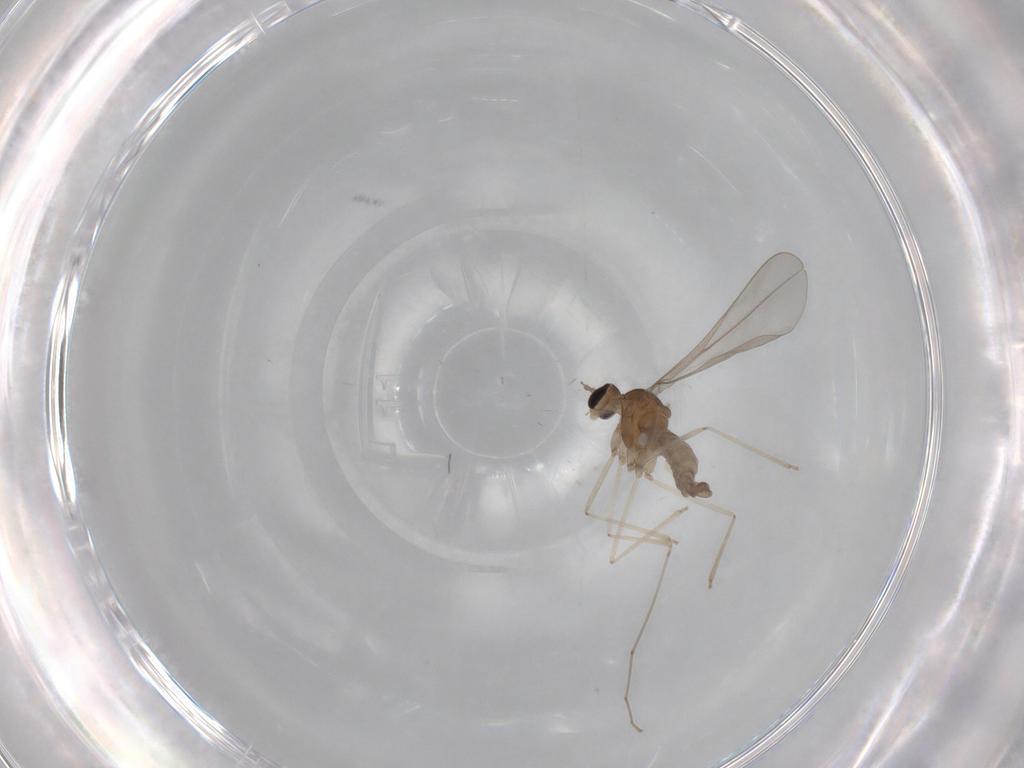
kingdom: Animalia
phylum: Arthropoda
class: Insecta
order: Diptera
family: Cecidomyiidae
